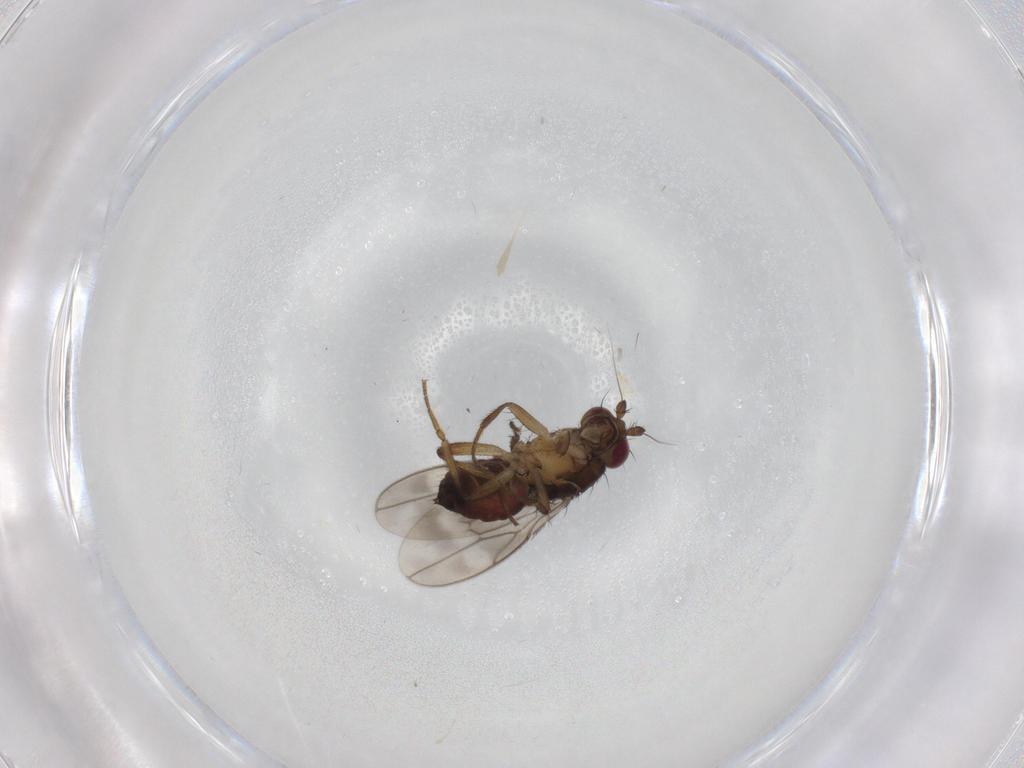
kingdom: Animalia
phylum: Arthropoda
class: Insecta
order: Diptera
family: Sphaeroceridae
